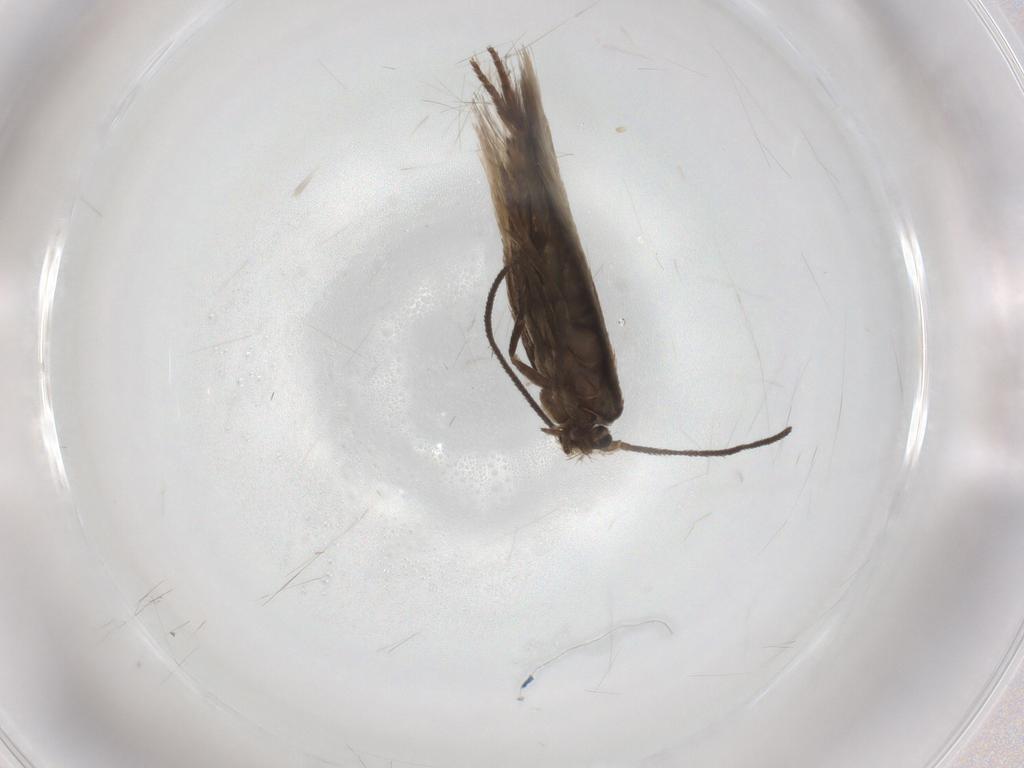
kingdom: Animalia
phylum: Arthropoda
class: Insecta
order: Lepidoptera
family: Nepticulidae
